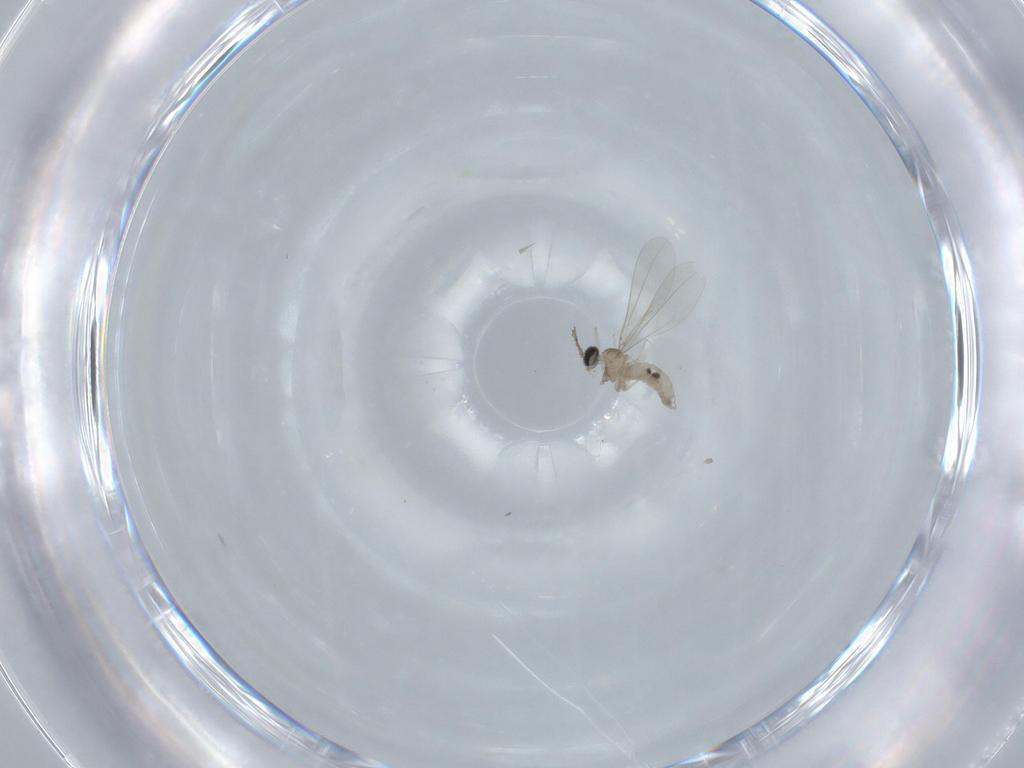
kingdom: Animalia
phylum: Arthropoda
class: Insecta
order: Diptera
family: Cecidomyiidae
